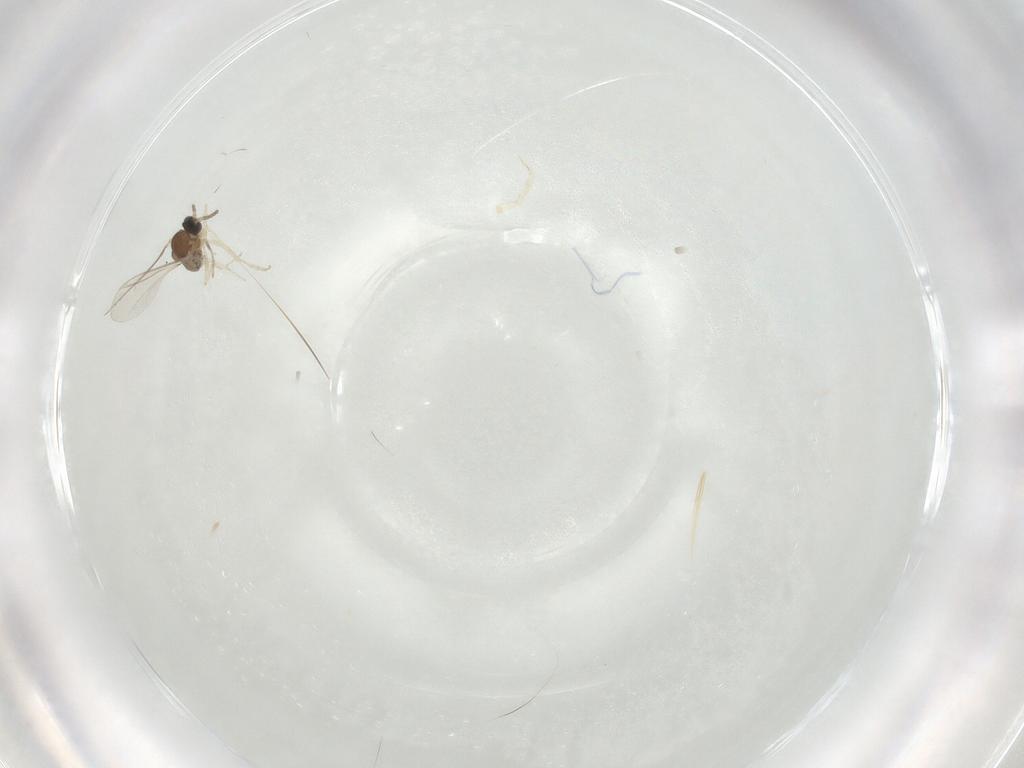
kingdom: Animalia
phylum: Arthropoda
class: Insecta
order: Diptera
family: Cecidomyiidae
